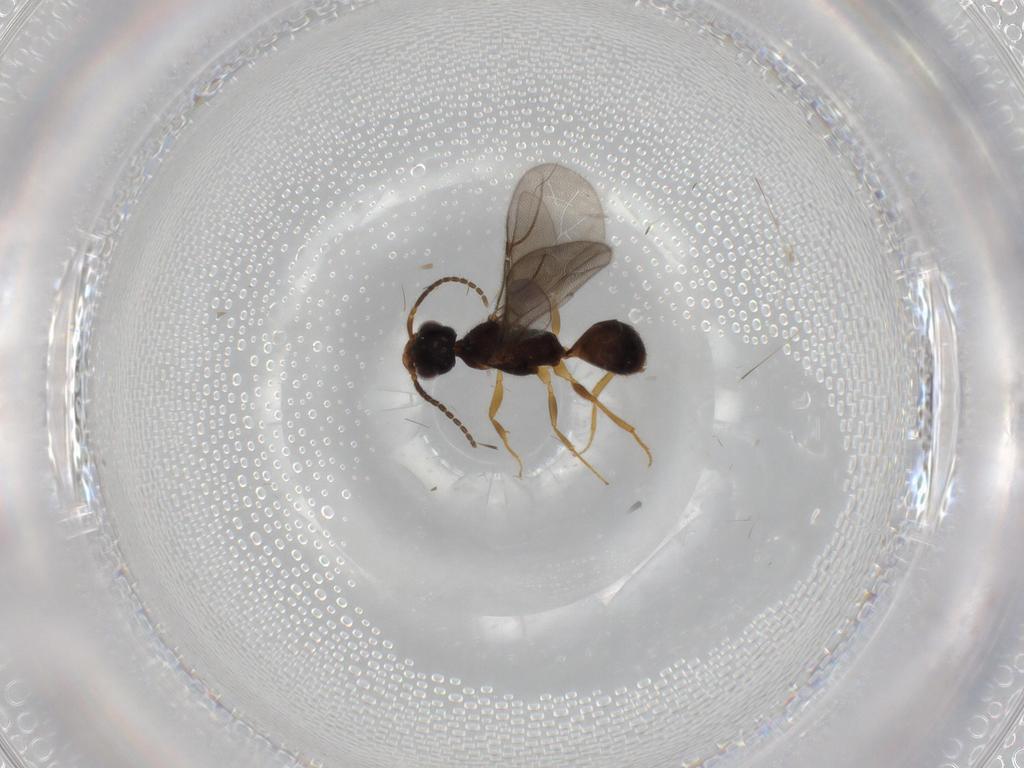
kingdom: Animalia
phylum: Arthropoda
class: Insecta
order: Hymenoptera
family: Bethylidae
